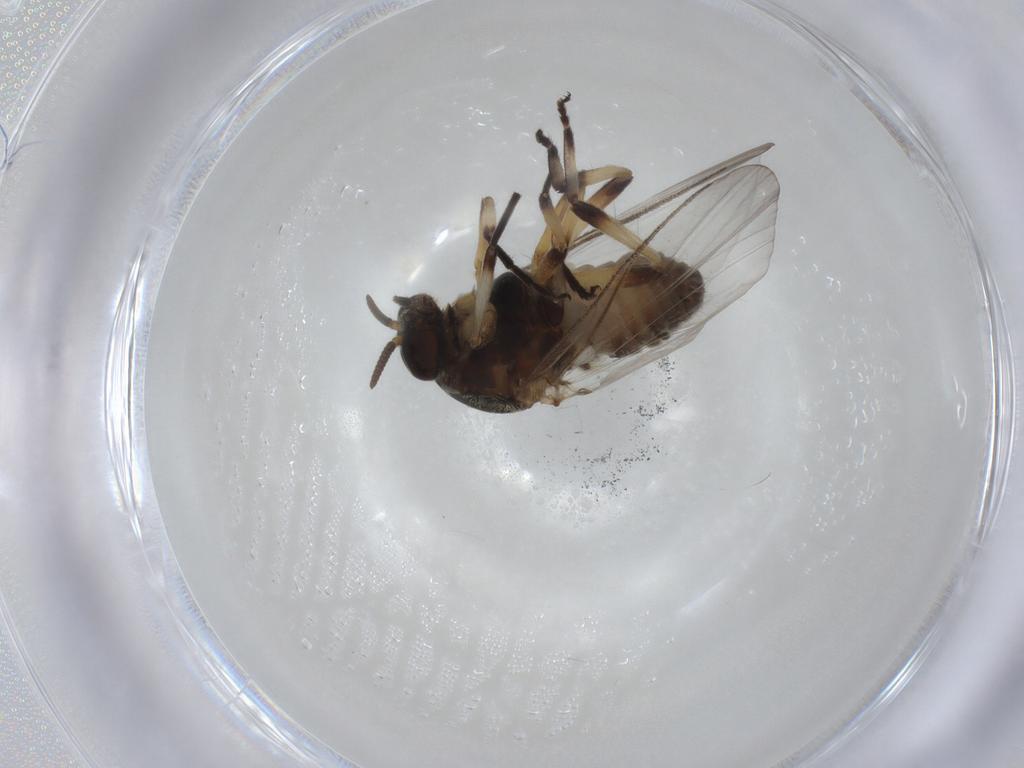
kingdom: Animalia
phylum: Arthropoda
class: Insecta
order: Diptera
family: Simuliidae
